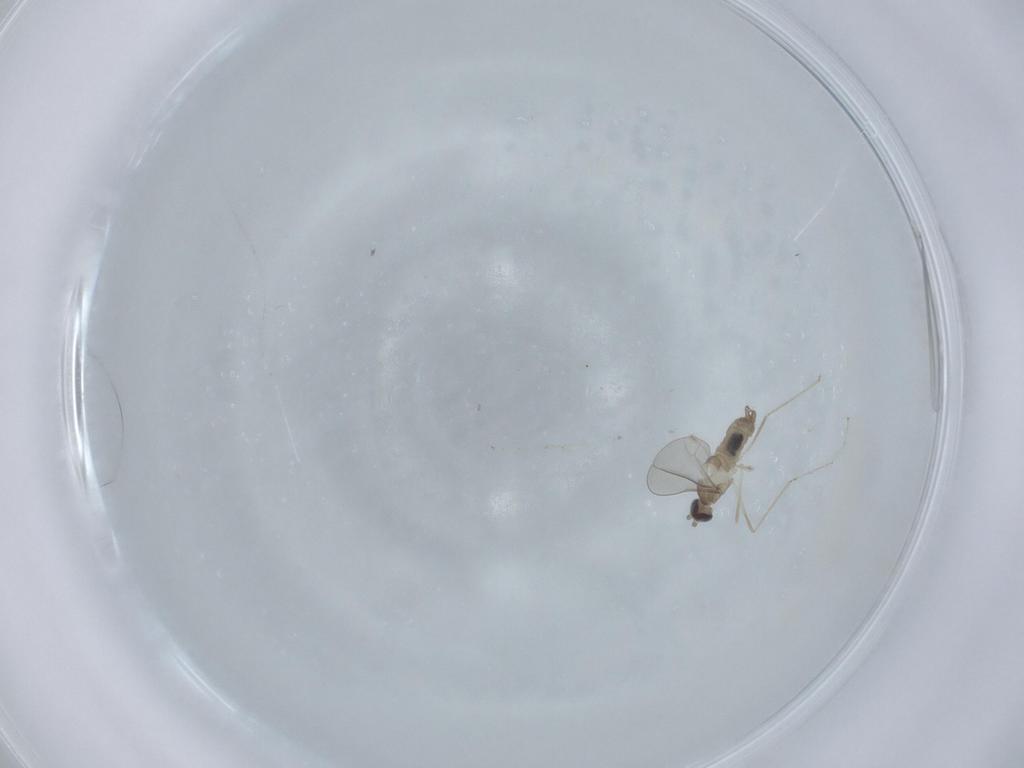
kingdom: Animalia
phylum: Arthropoda
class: Insecta
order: Diptera
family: Cecidomyiidae
